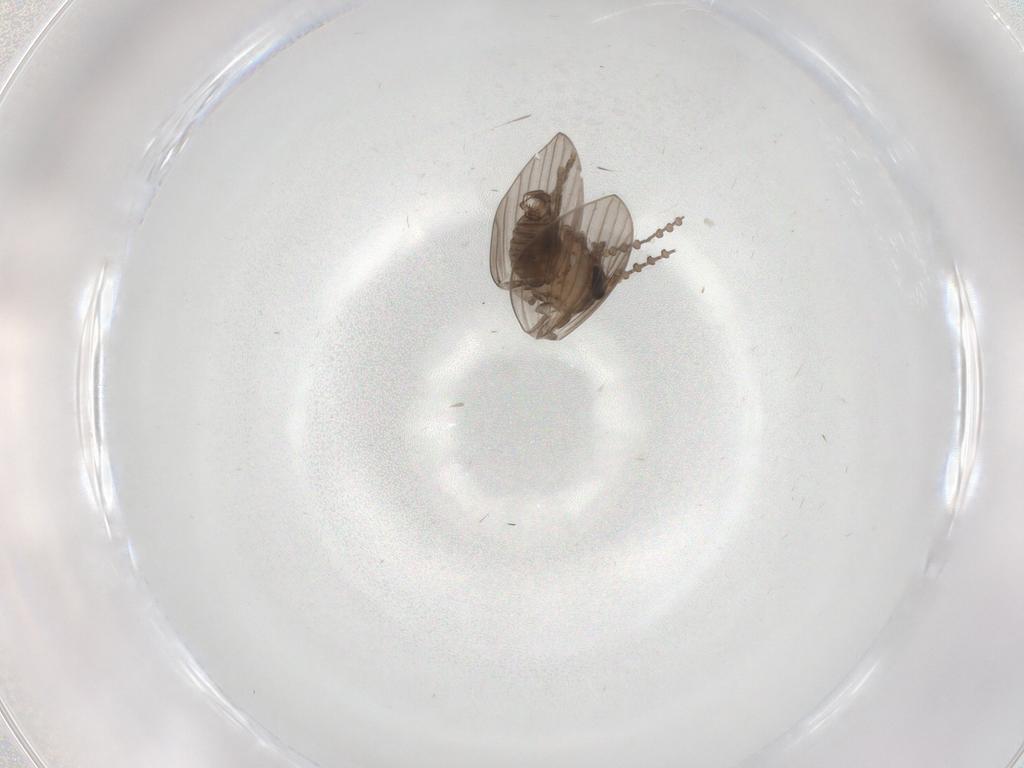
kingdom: Animalia
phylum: Arthropoda
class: Insecta
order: Diptera
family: Psychodidae
